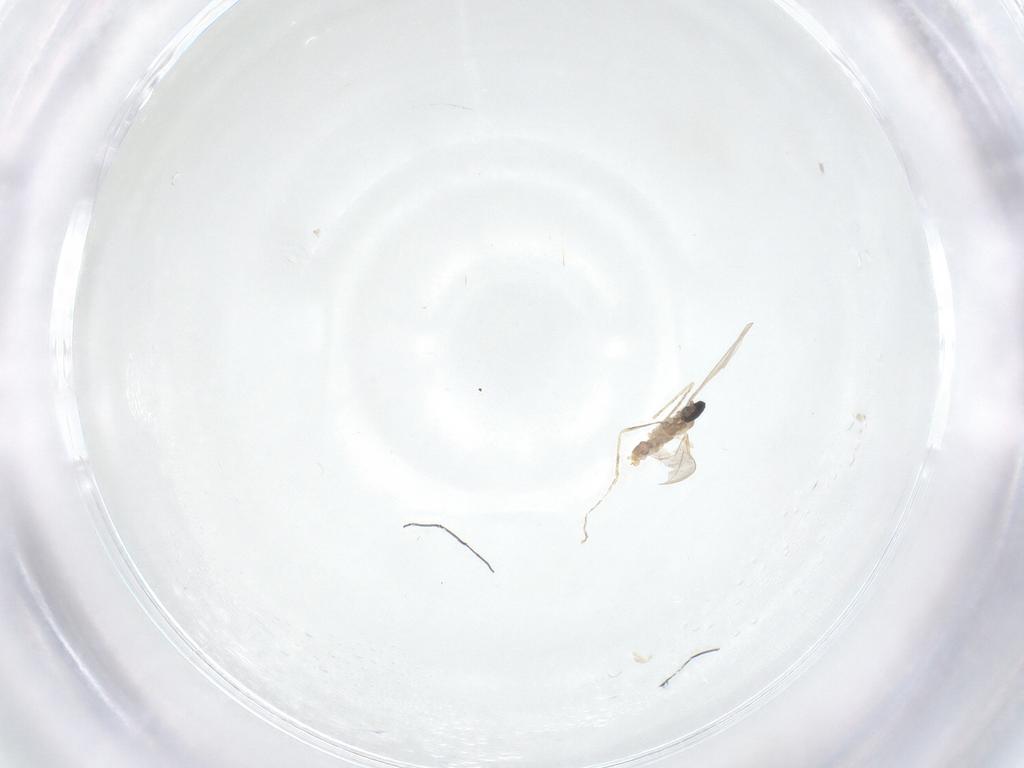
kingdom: Animalia
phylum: Arthropoda
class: Insecta
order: Diptera
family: Cecidomyiidae
